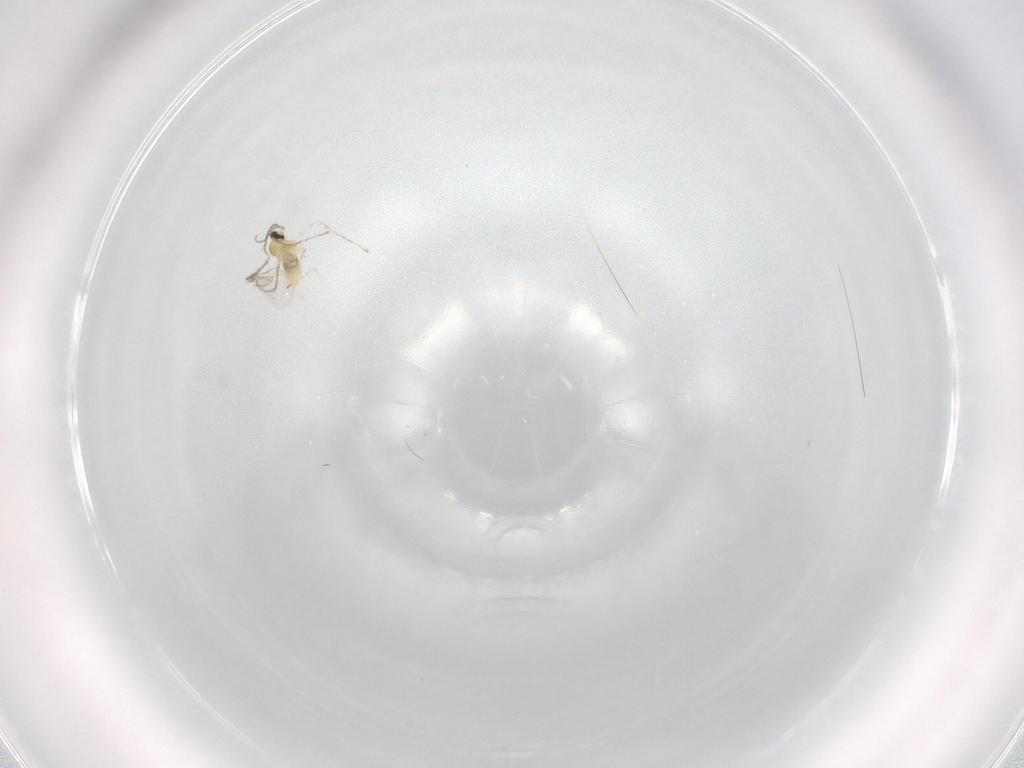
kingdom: Animalia
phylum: Arthropoda
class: Insecta
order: Diptera
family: Cecidomyiidae
